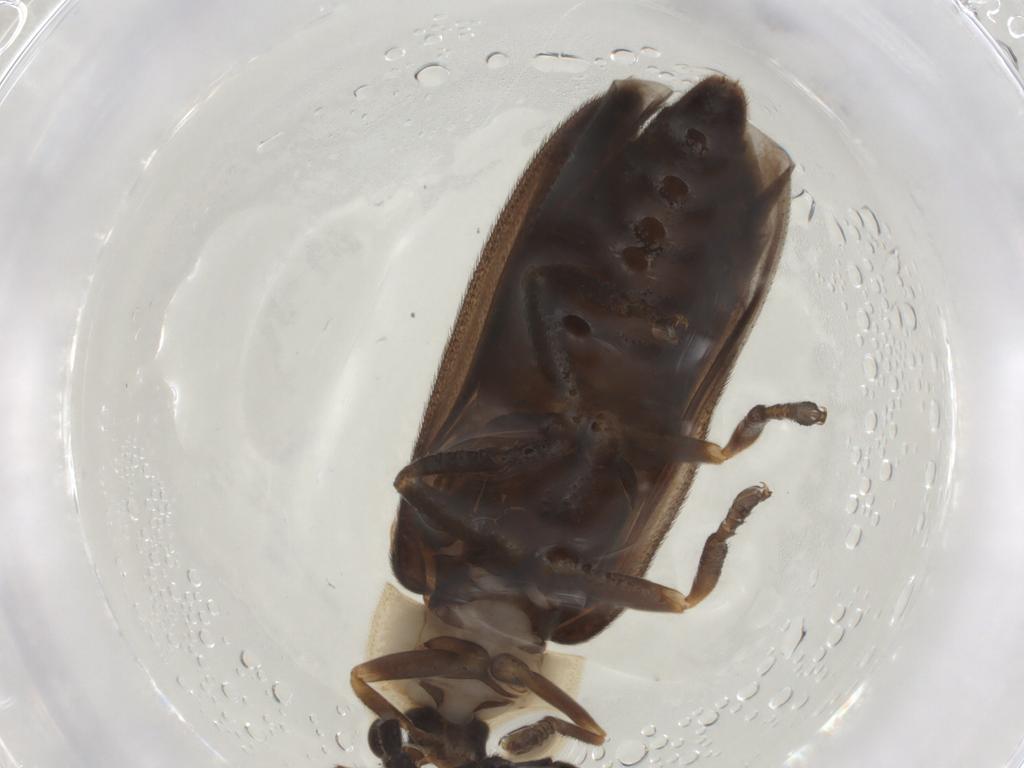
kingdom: Animalia
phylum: Arthropoda
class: Insecta
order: Coleoptera
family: Lampyridae
